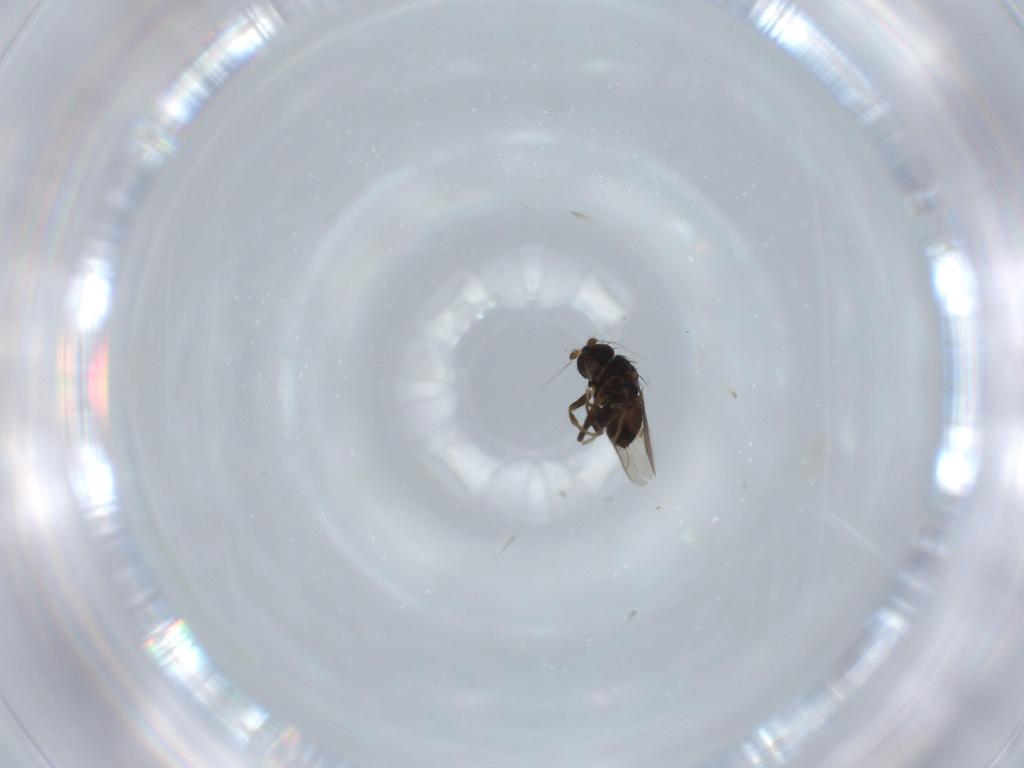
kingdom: Animalia
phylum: Arthropoda
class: Insecta
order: Diptera
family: Sphaeroceridae
